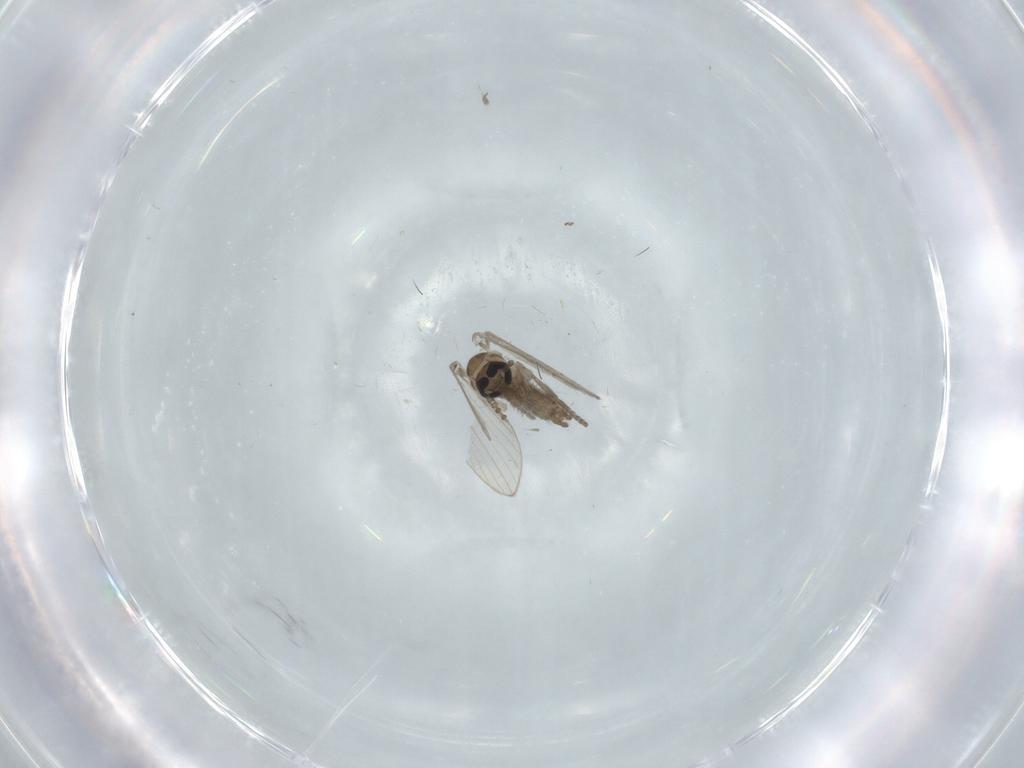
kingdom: Animalia
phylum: Arthropoda
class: Insecta
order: Diptera
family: Psychodidae
